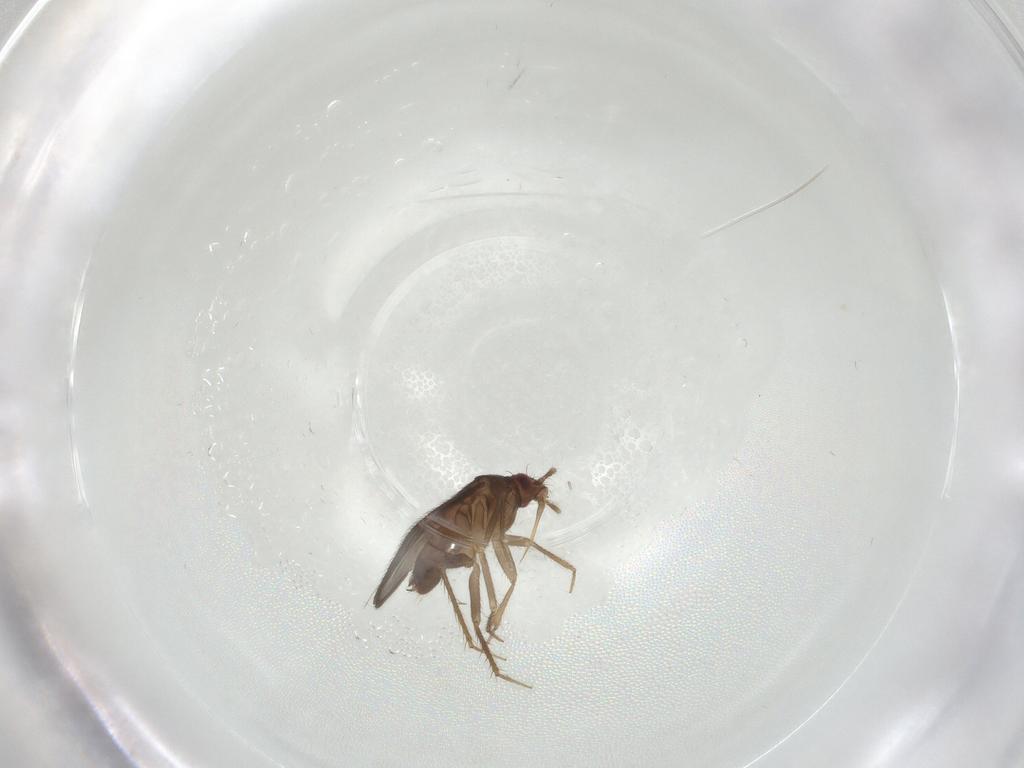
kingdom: Animalia
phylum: Arthropoda
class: Insecta
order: Hemiptera
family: Ceratocombidae
